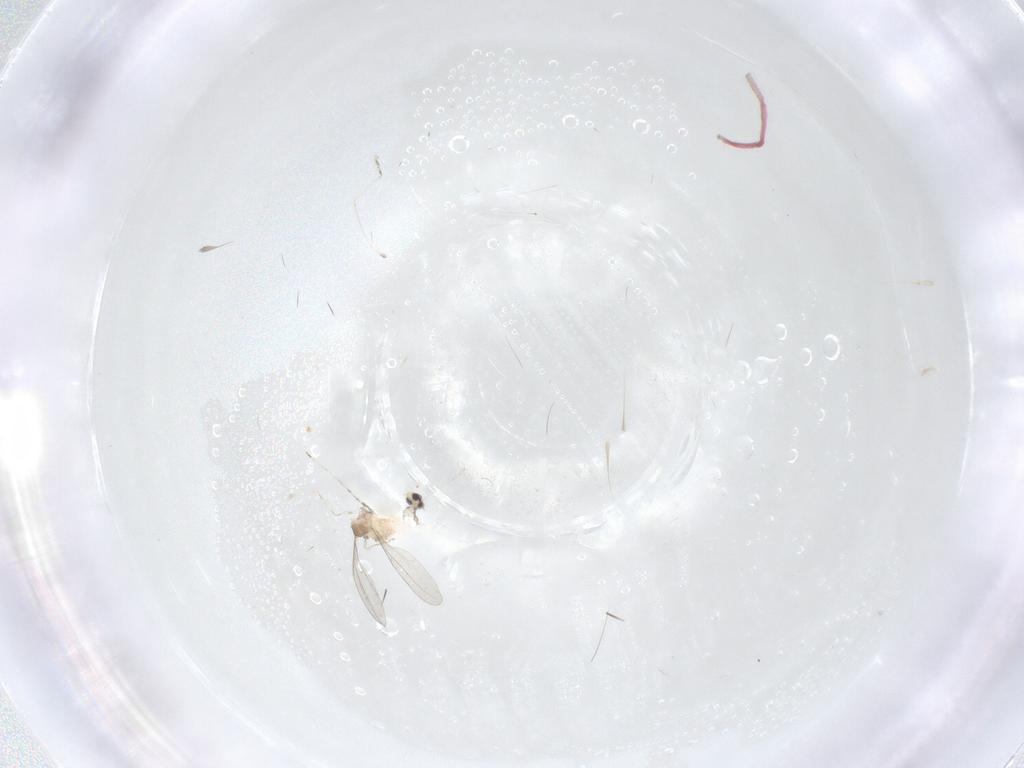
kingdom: Animalia
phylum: Arthropoda
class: Insecta
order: Diptera
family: Cecidomyiidae
